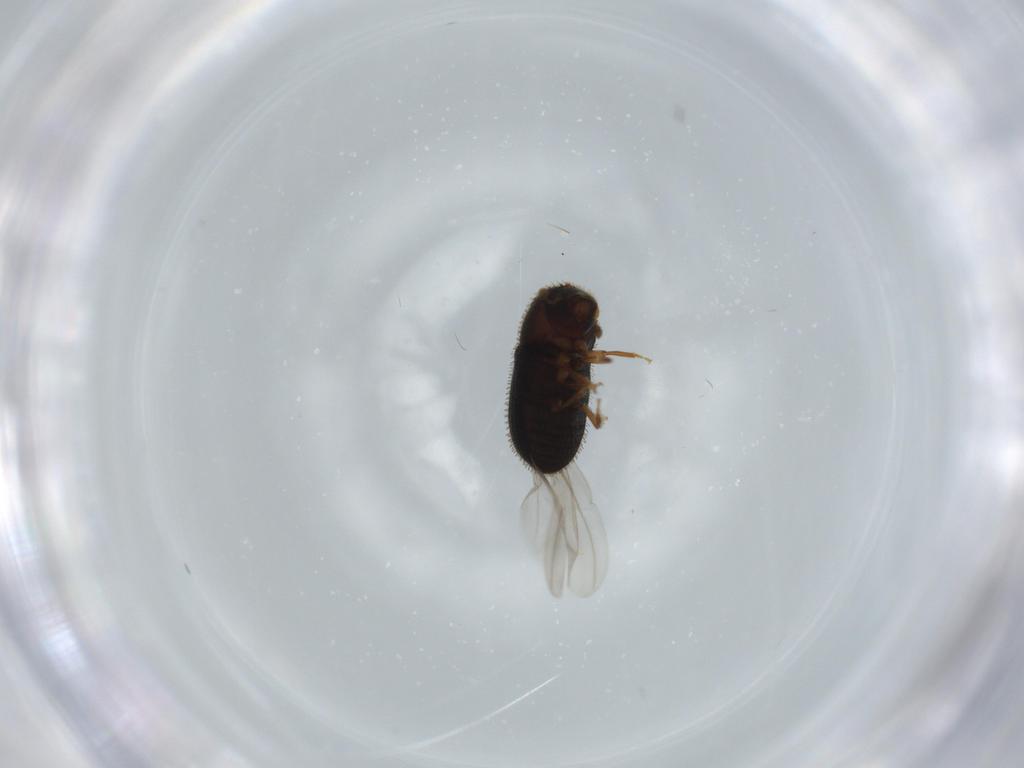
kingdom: Animalia
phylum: Arthropoda
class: Insecta
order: Coleoptera
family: Curculionidae
